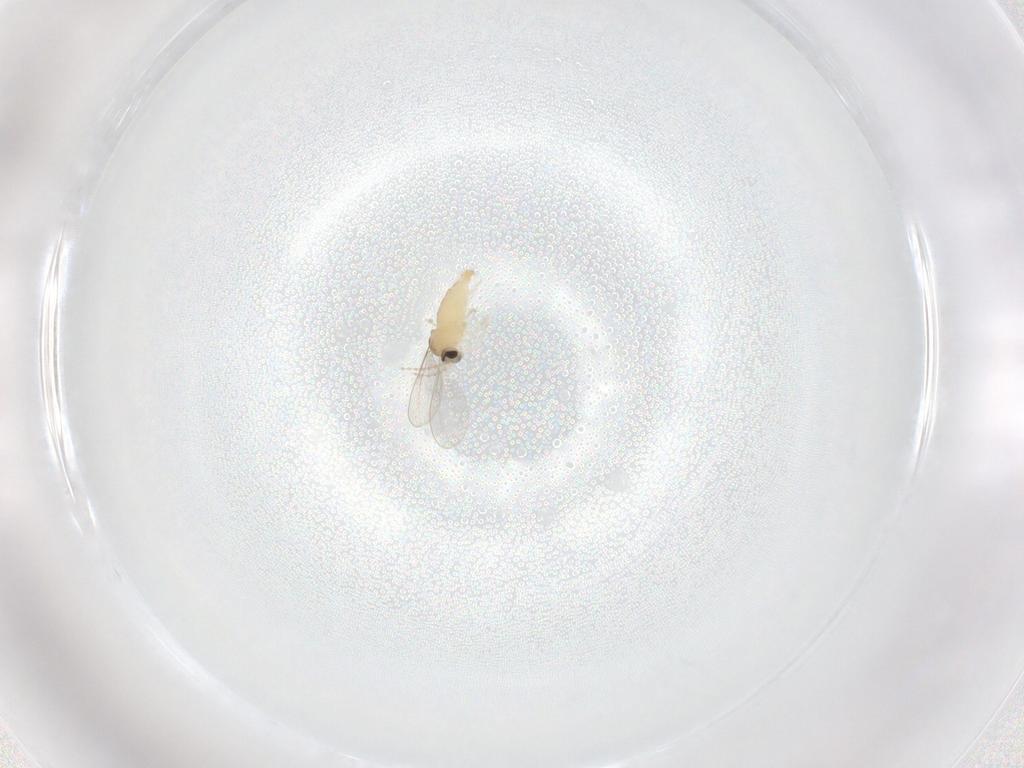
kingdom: Animalia
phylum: Arthropoda
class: Insecta
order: Diptera
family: Cecidomyiidae
